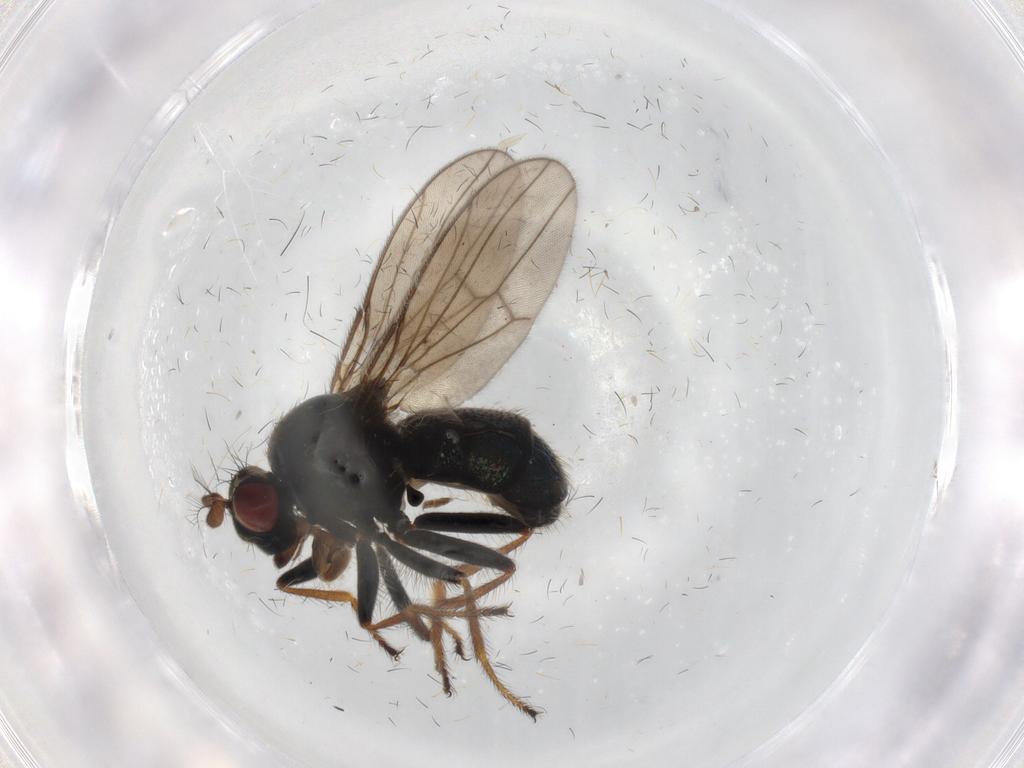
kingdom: Animalia
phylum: Arthropoda
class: Insecta
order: Diptera
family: Ephydridae
